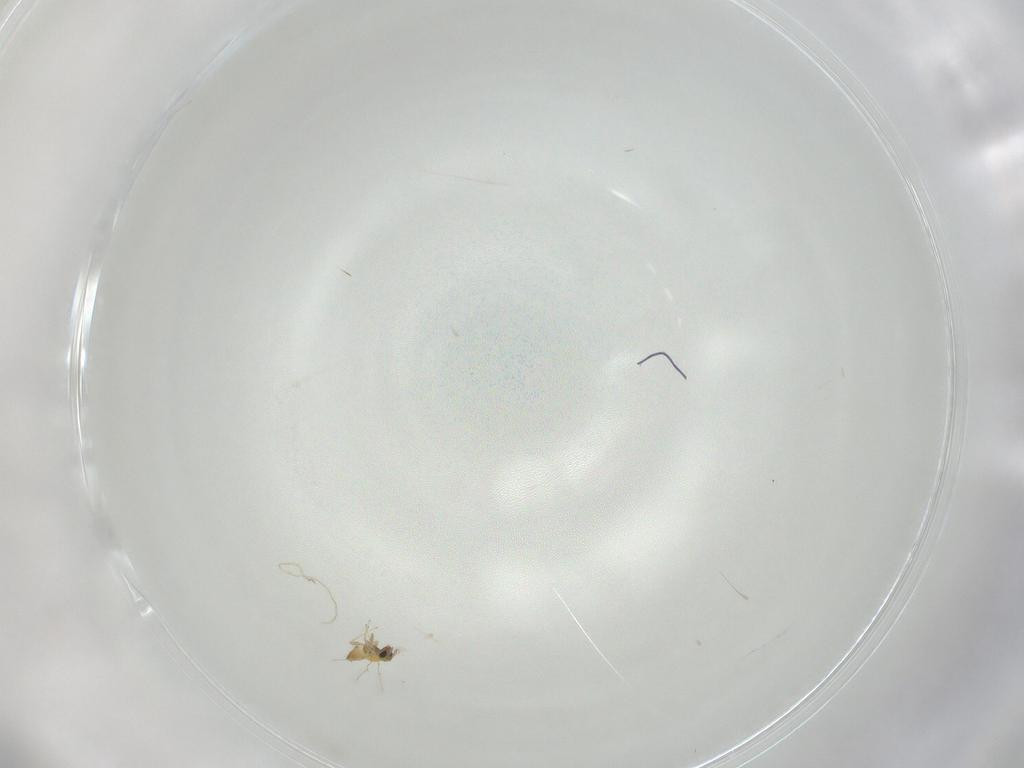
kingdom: Animalia
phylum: Arthropoda
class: Insecta
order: Hymenoptera
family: Trichogrammatidae
